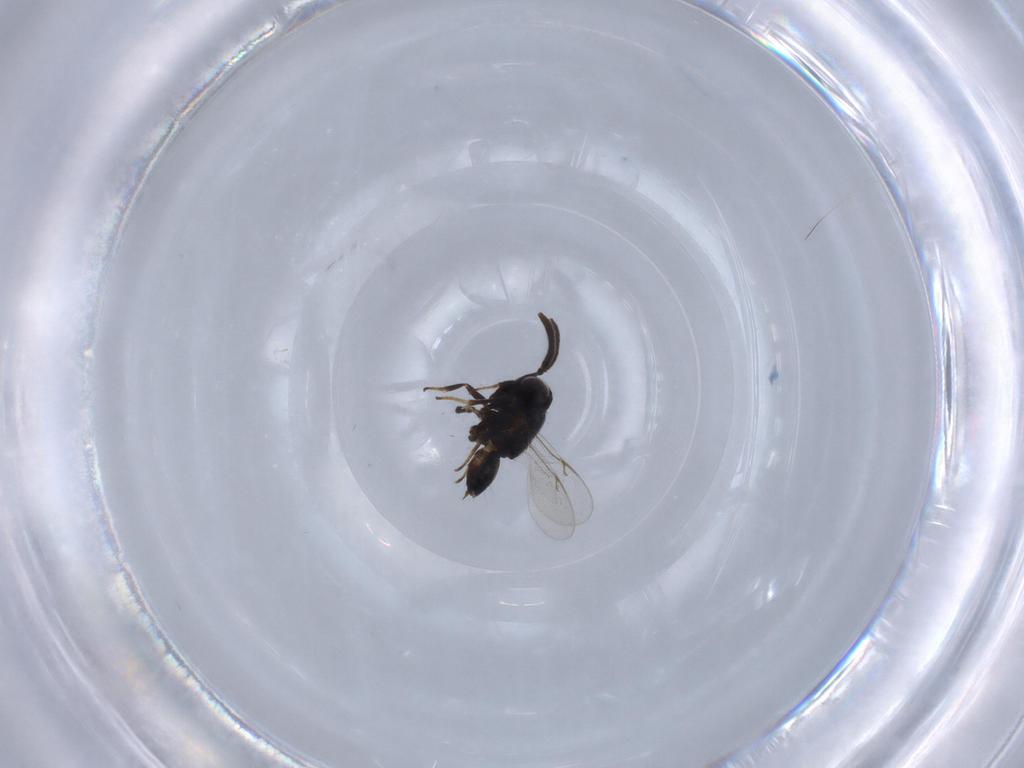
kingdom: Animalia
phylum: Arthropoda
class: Insecta
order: Hymenoptera
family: Encyrtidae
